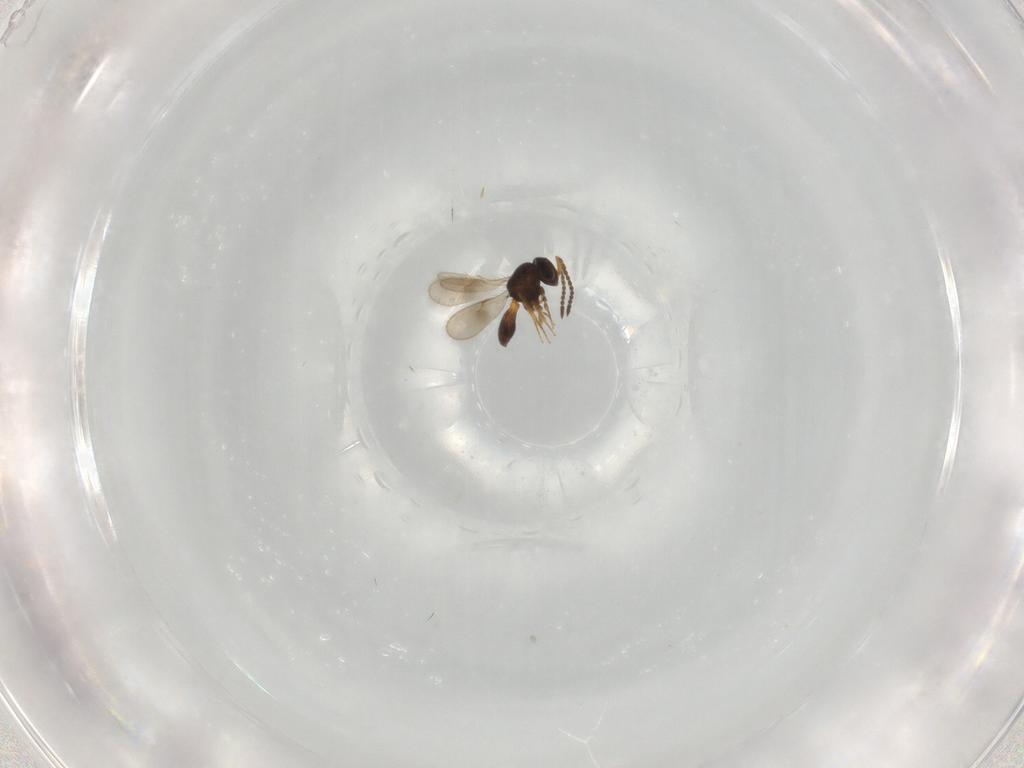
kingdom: Animalia
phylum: Arthropoda
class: Insecta
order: Hymenoptera
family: Scelionidae
